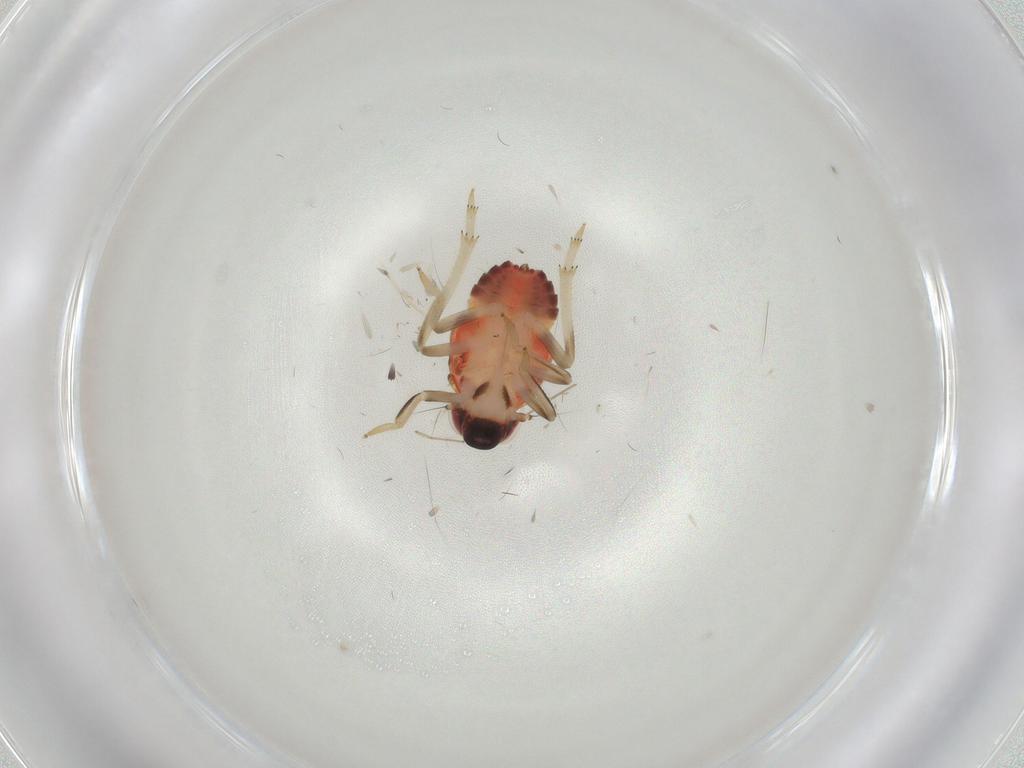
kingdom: Animalia
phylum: Arthropoda
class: Insecta
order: Hemiptera
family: Nogodinidae
